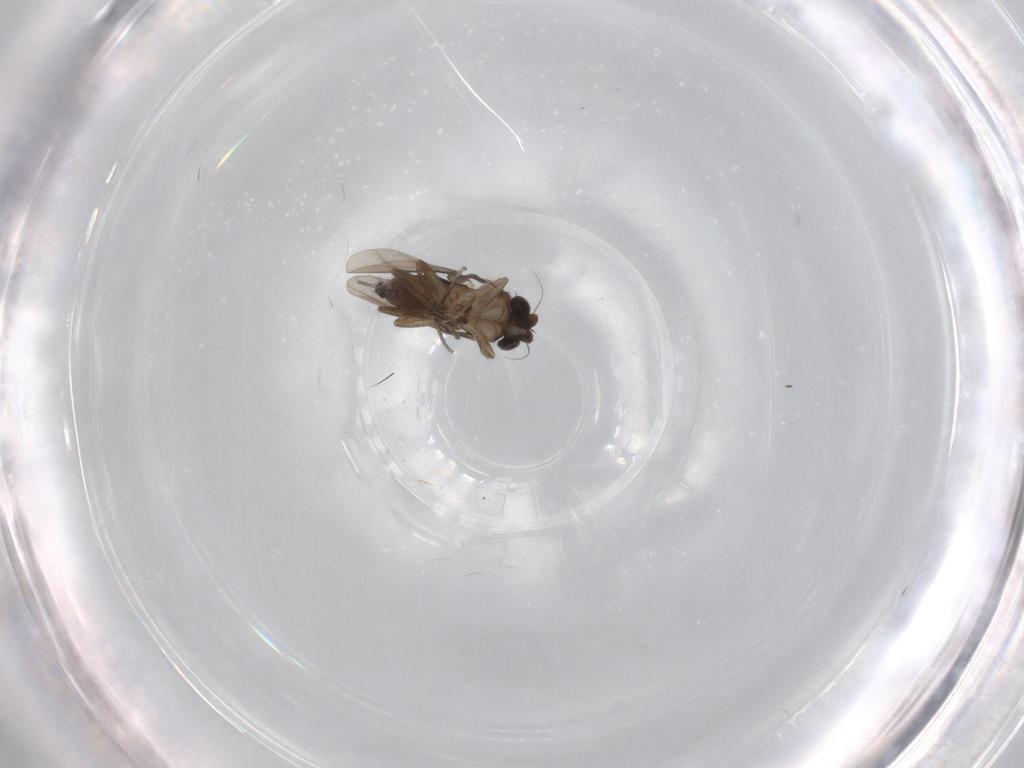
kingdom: Animalia
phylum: Arthropoda
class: Insecta
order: Diptera
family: Phoridae
